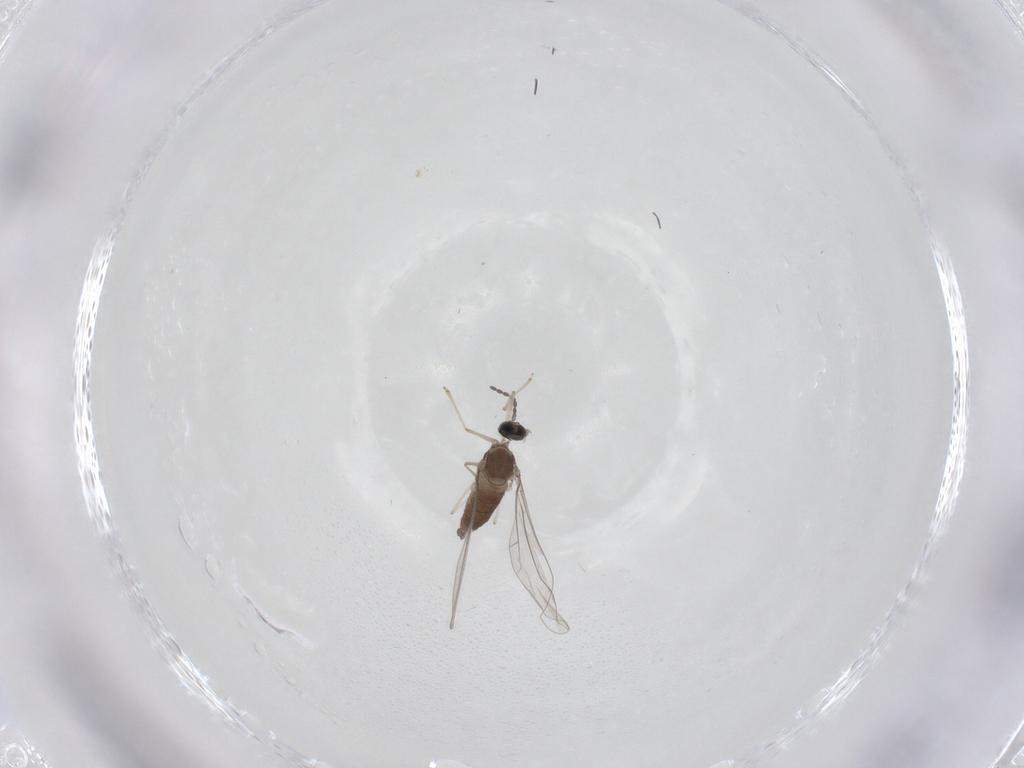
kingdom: Animalia
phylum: Arthropoda
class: Insecta
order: Diptera
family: Cecidomyiidae
